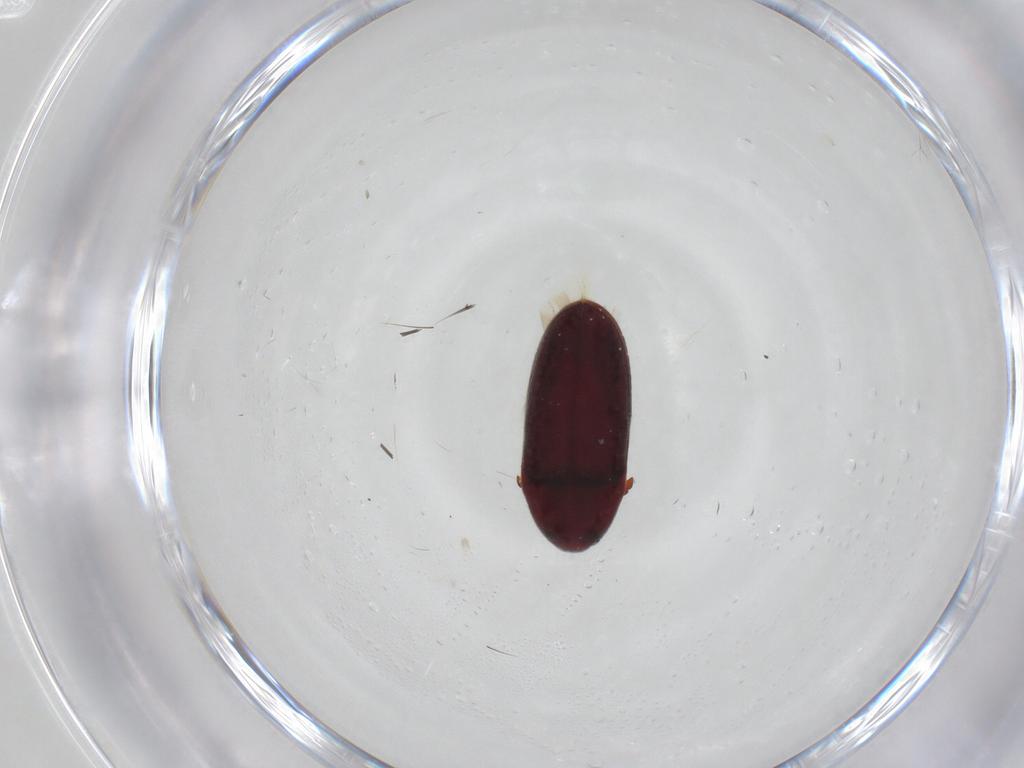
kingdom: Animalia
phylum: Arthropoda
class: Insecta
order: Coleoptera
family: Throscidae
